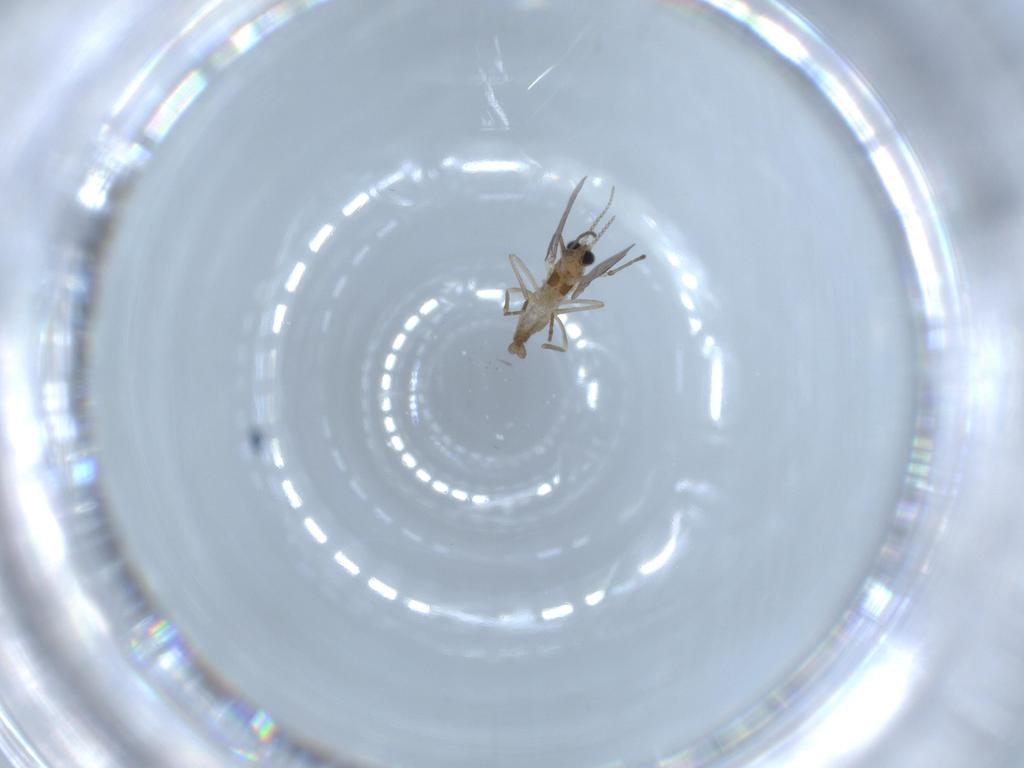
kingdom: Animalia
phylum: Arthropoda
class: Insecta
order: Diptera
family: Cecidomyiidae
